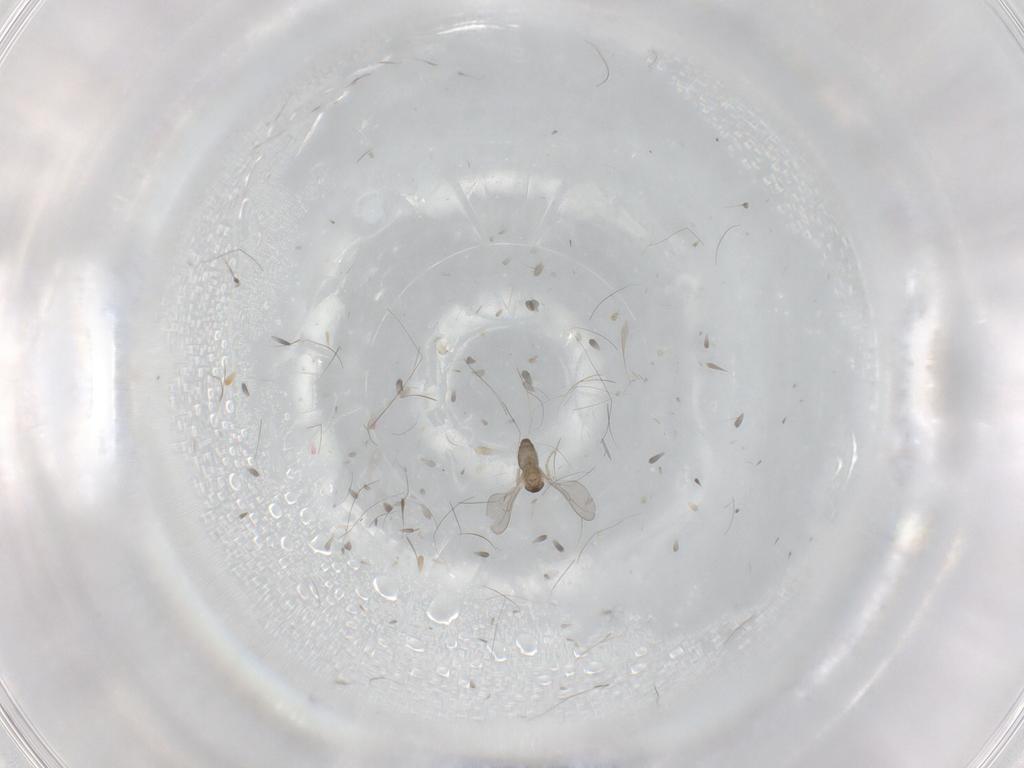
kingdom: Animalia
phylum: Arthropoda
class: Insecta
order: Diptera
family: Cecidomyiidae
